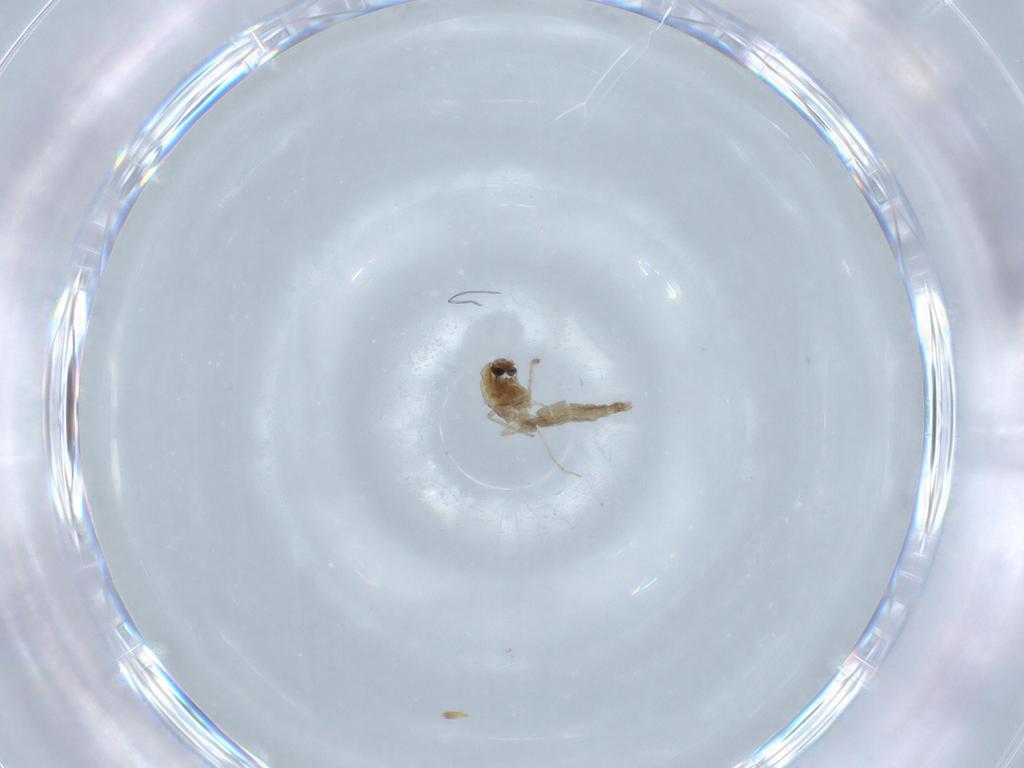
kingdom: Animalia
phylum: Arthropoda
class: Insecta
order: Diptera
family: Chironomidae
